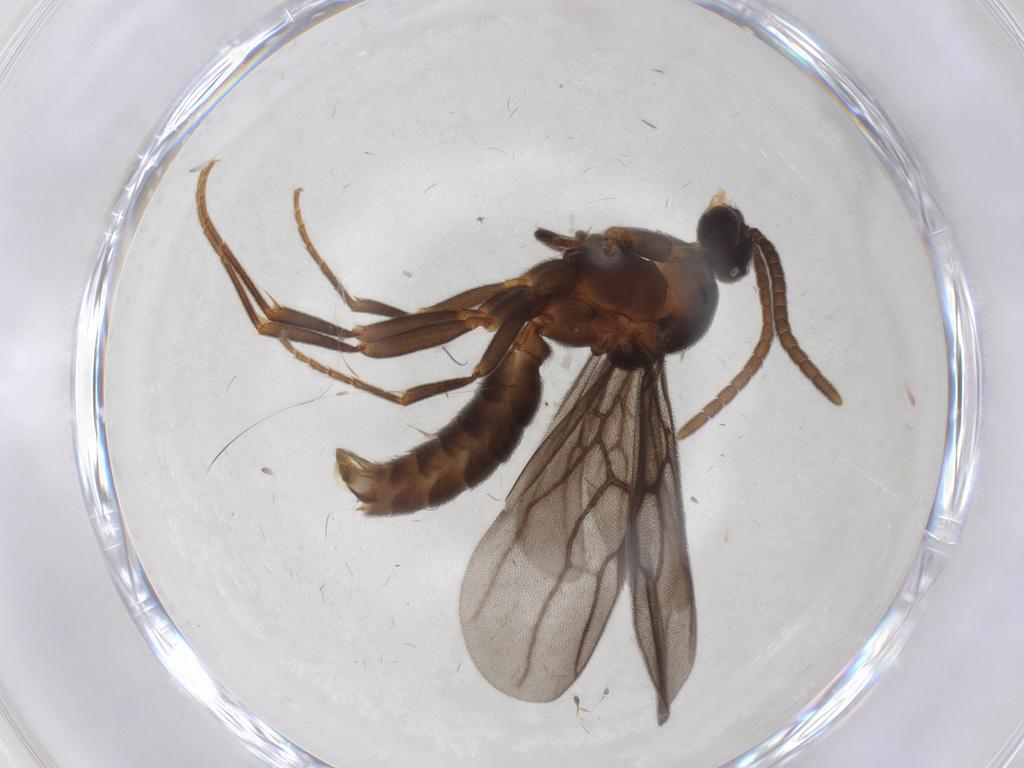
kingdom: Animalia
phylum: Arthropoda
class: Insecta
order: Hymenoptera
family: Formicidae
